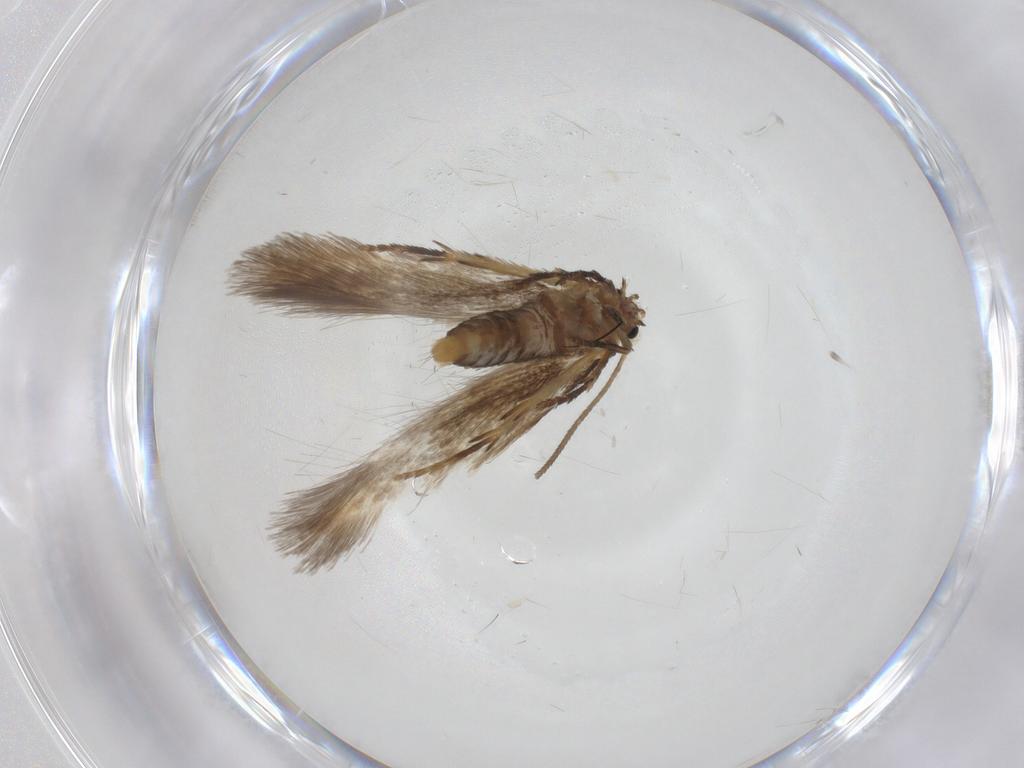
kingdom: Animalia
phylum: Arthropoda
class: Insecta
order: Lepidoptera
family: Nepticulidae
